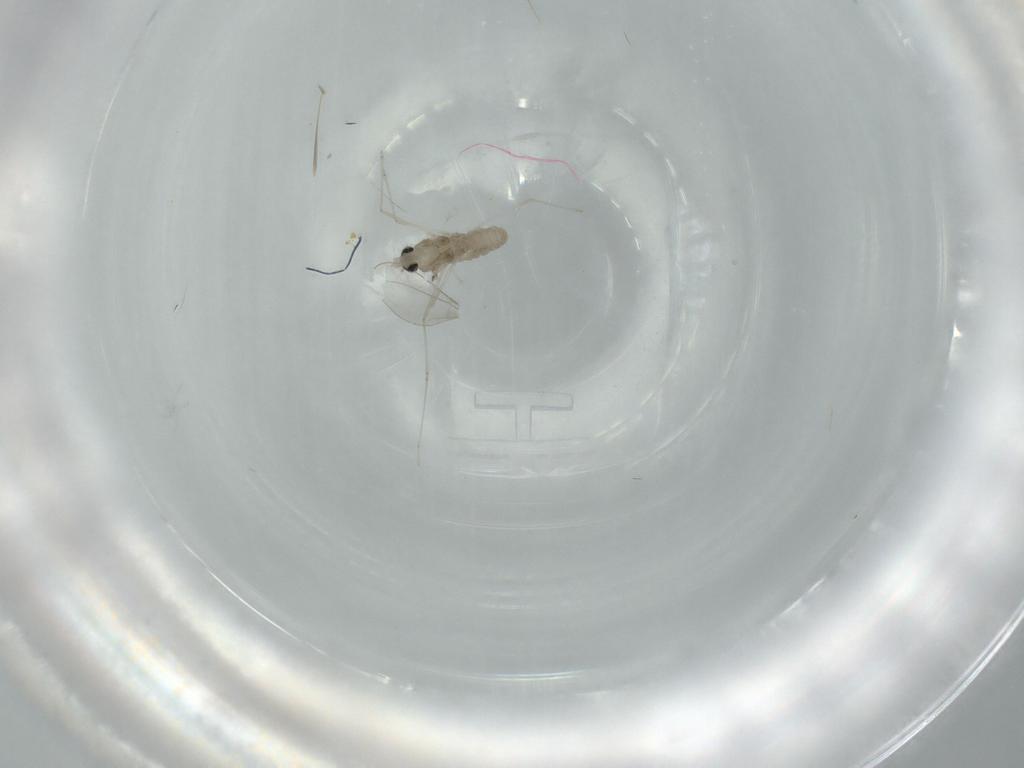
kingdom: Animalia
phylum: Arthropoda
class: Insecta
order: Diptera
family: Cecidomyiidae
